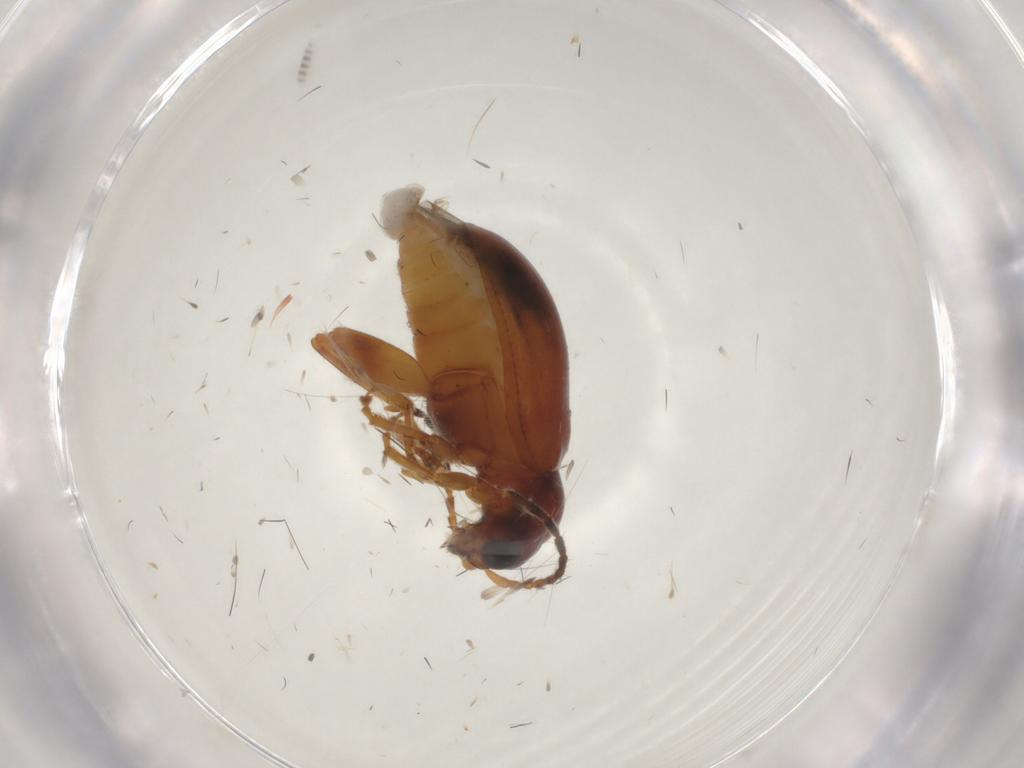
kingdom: Animalia
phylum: Arthropoda
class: Insecta
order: Coleoptera
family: Chrysomelidae
